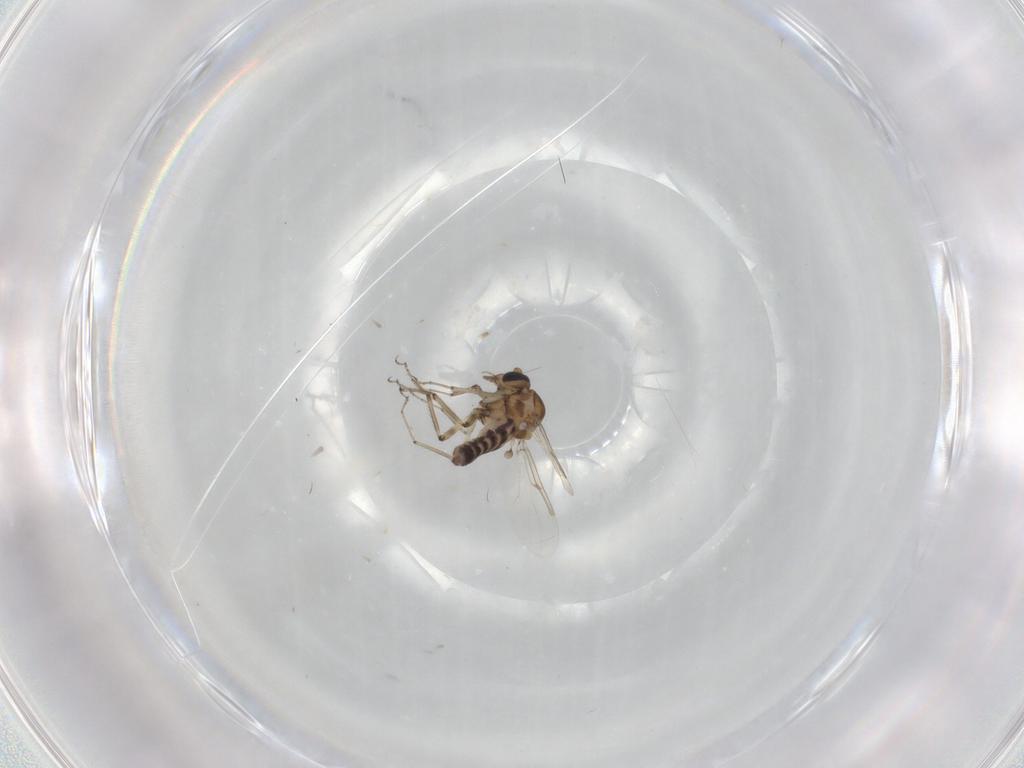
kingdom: Animalia
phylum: Arthropoda
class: Insecta
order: Diptera
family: Ceratopogonidae
